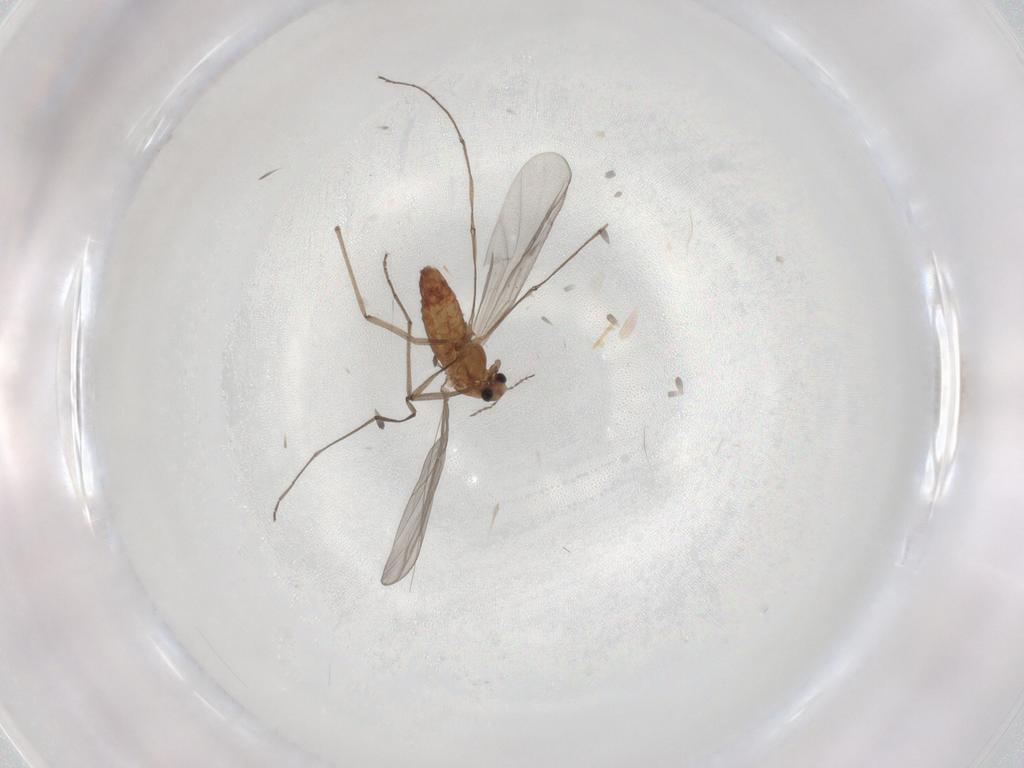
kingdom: Animalia
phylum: Arthropoda
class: Insecta
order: Diptera
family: Chironomidae
